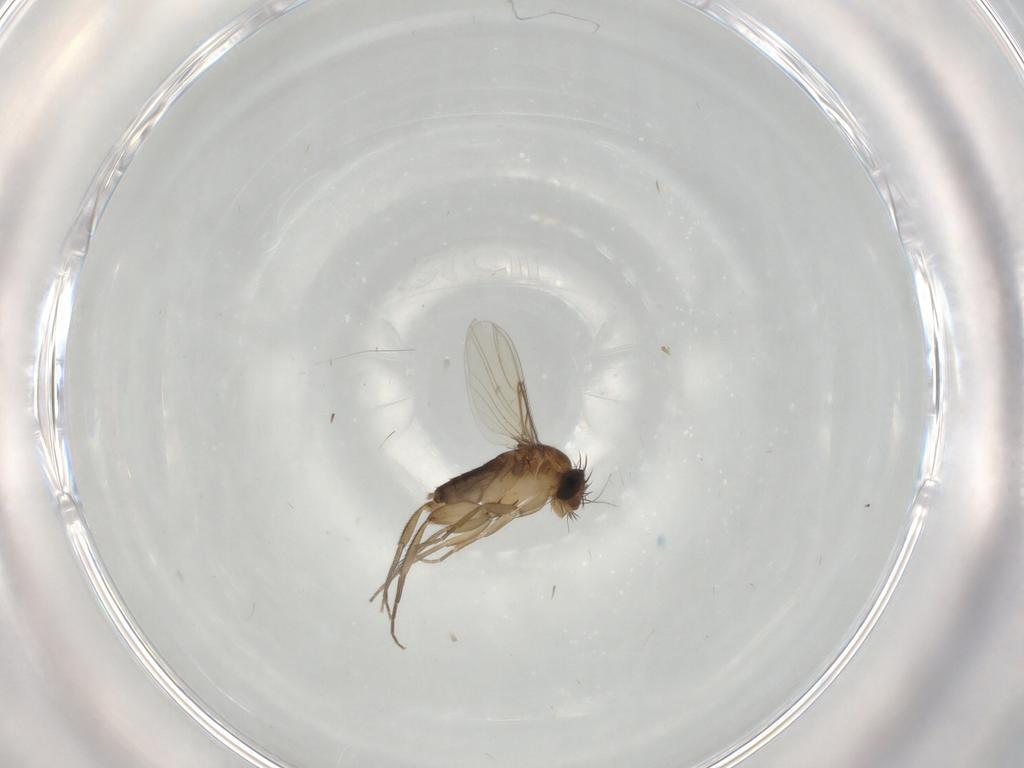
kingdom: Animalia
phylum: Arthropoda
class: Insecta
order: Diptera
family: Phoridae
